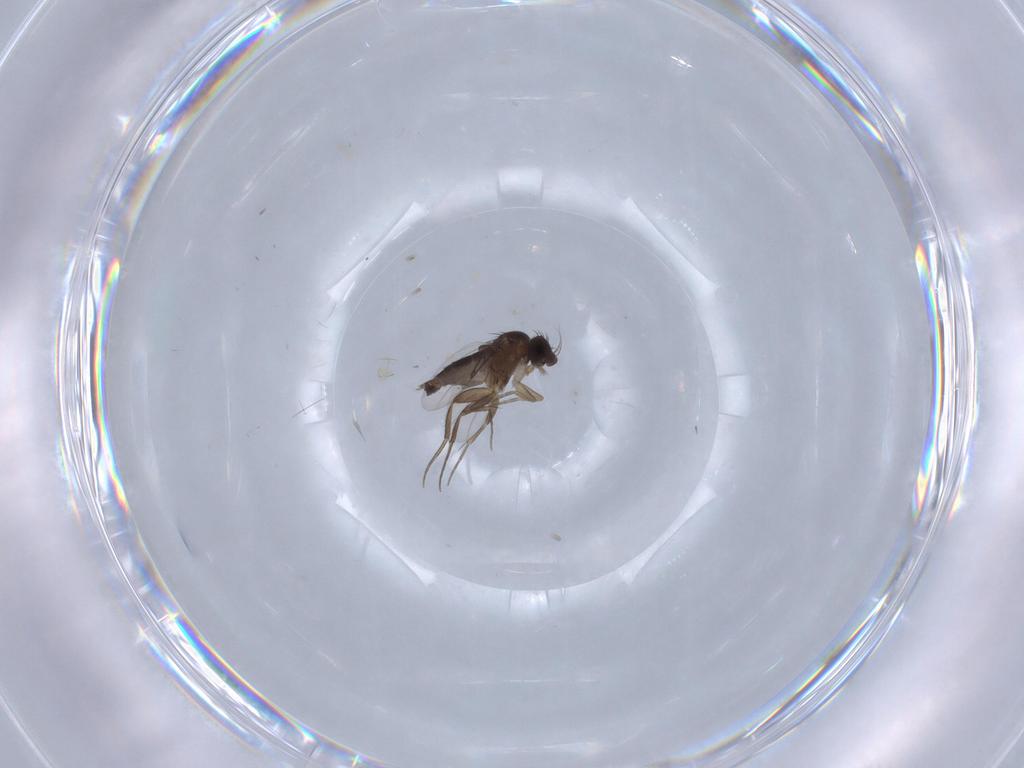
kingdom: Animalia
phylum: Arthropoda
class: Insecta
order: Diptera
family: Phoridae
